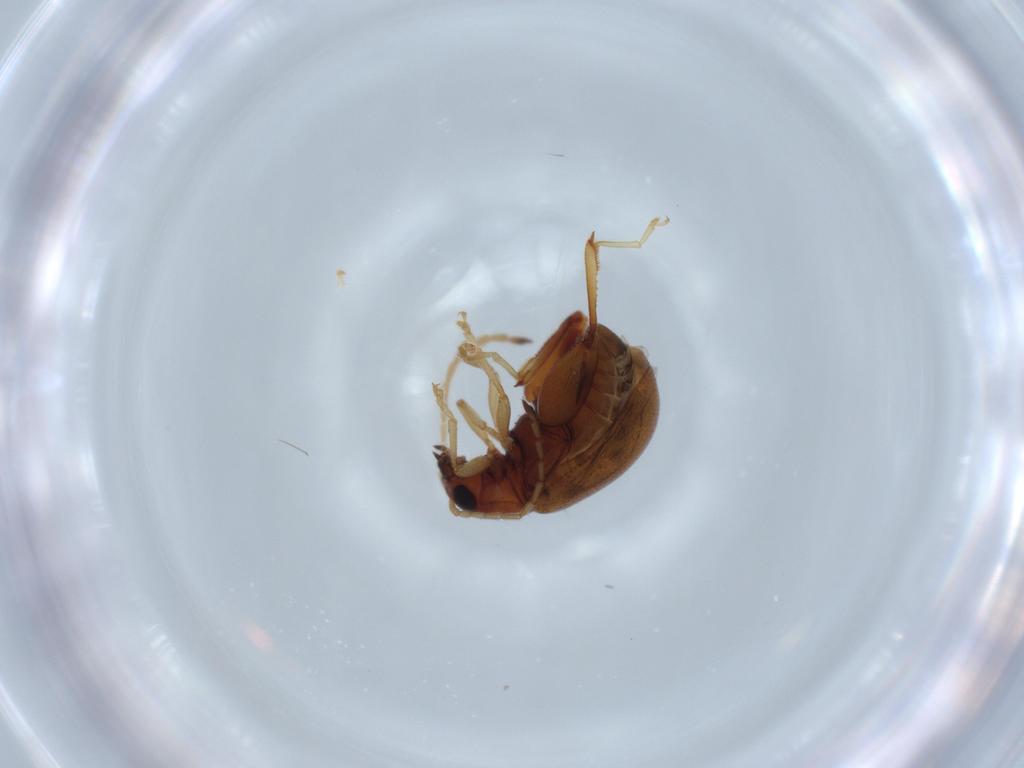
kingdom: Animalia
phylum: Arthropoda
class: Insecta
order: Coleoptera
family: Chrysomelidae
